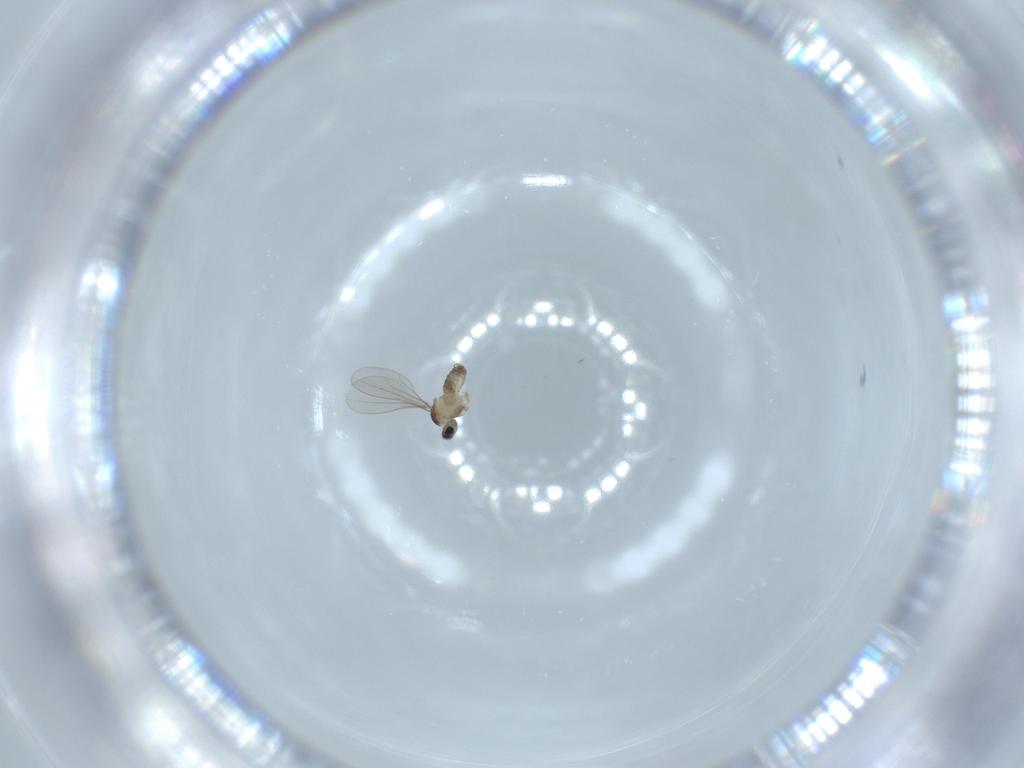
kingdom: Animalia
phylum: Arthropoda
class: Insecta
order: Diptera
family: Cecidomyiidae
